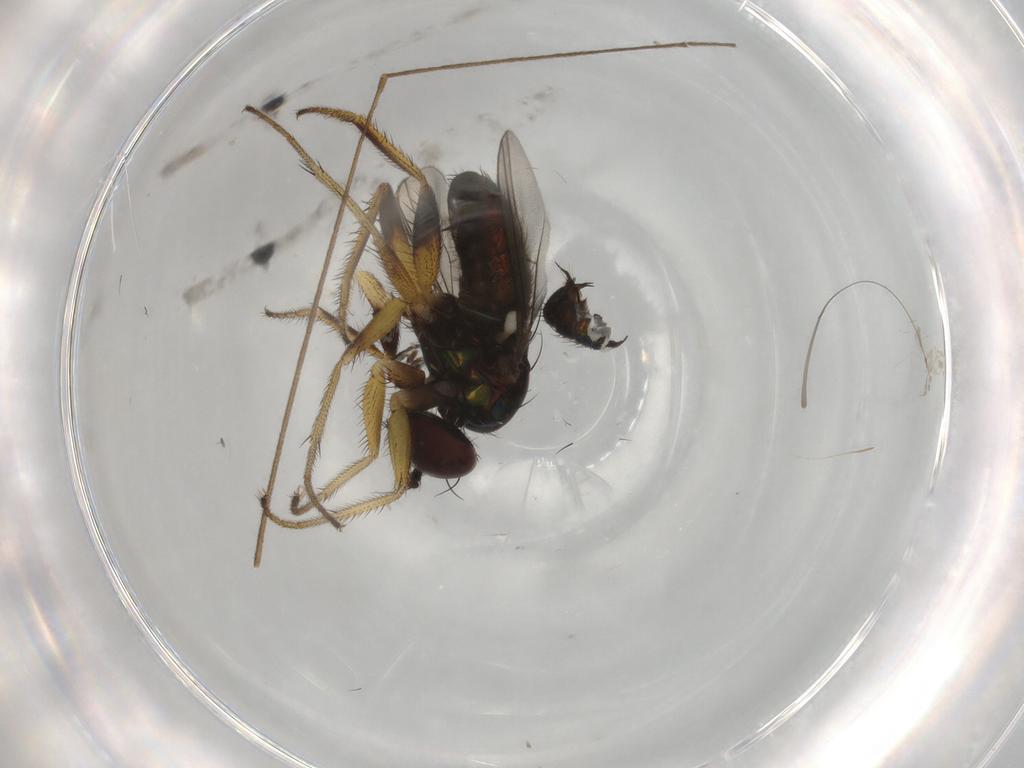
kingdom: Animalia
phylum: Arthropoda
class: Insecta
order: Diptera
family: Dolichopodidae
